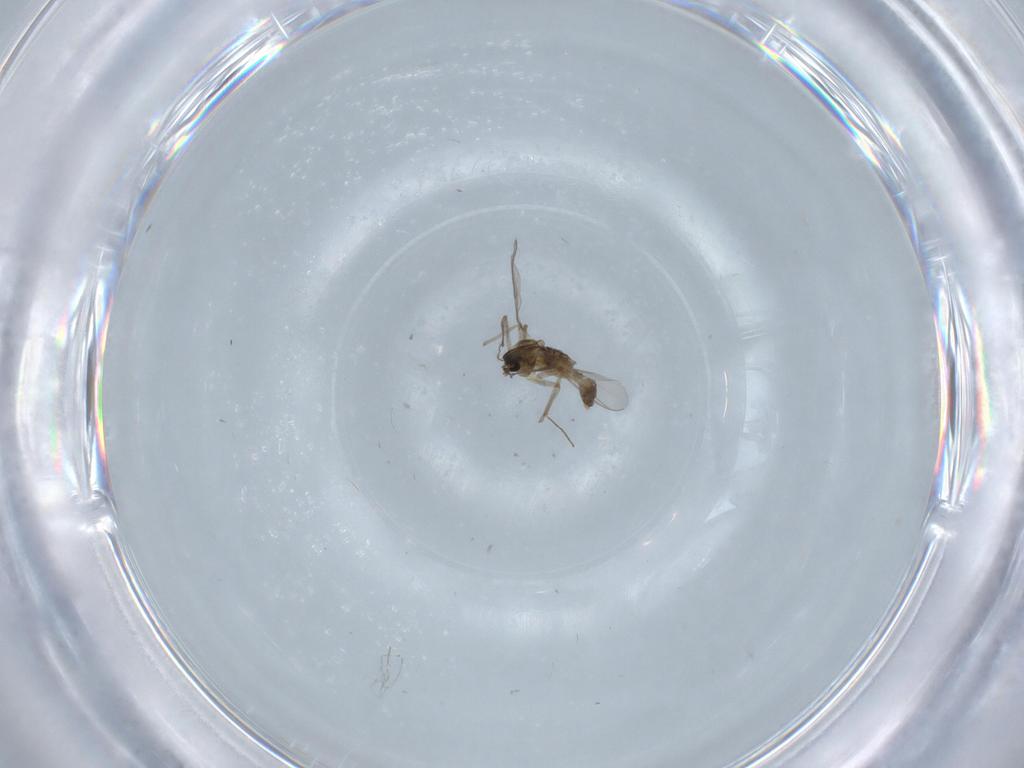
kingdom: Animalia
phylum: Arthropoda
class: Insecta
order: Diptera
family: Chironomidae
